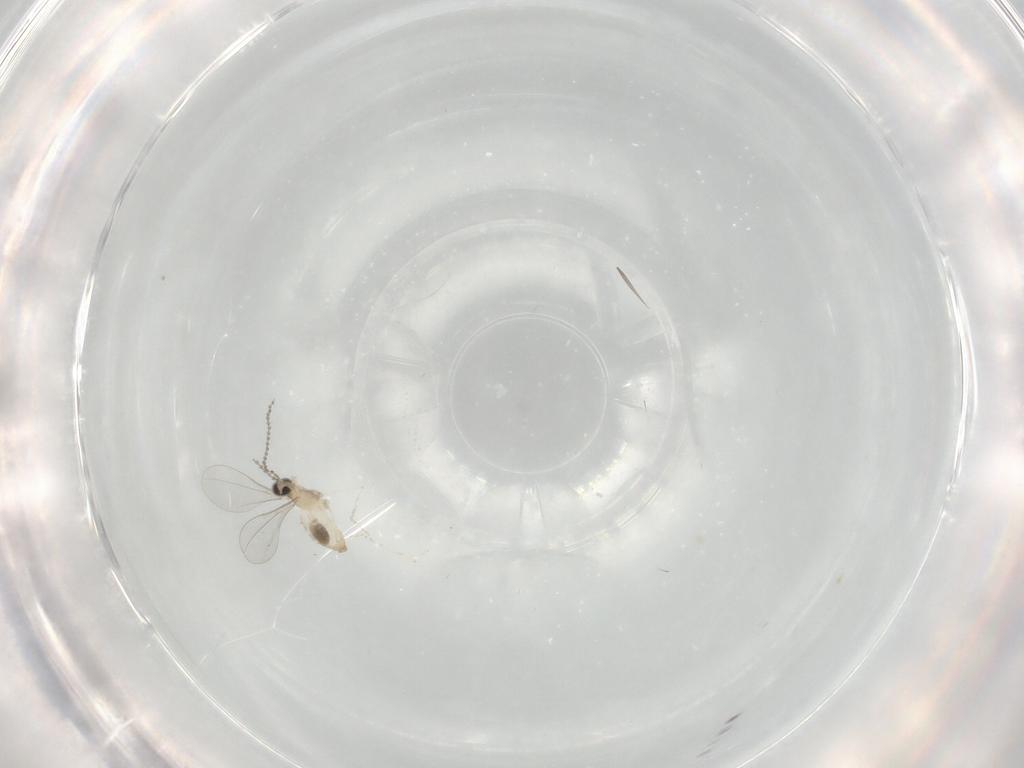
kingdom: Animalia
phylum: Arthropoda
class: Insecta
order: Diptera
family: Cecidomyiidae
